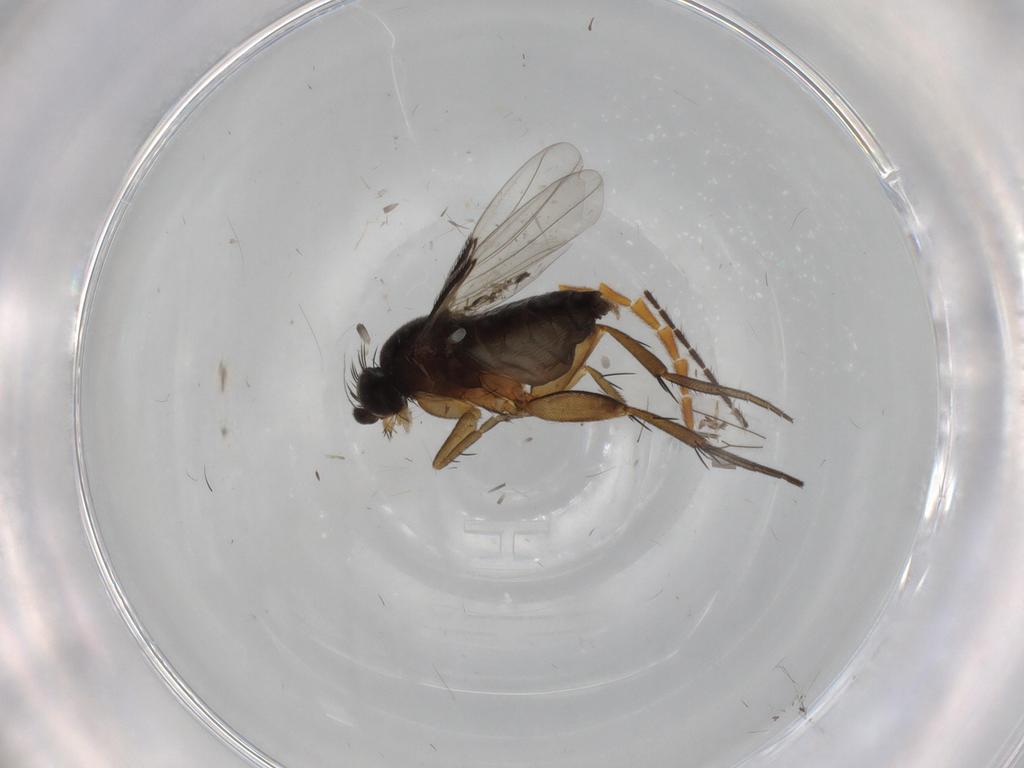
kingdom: Animalia
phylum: Arthropoda
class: Insecta
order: Diptera
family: Phoridae
